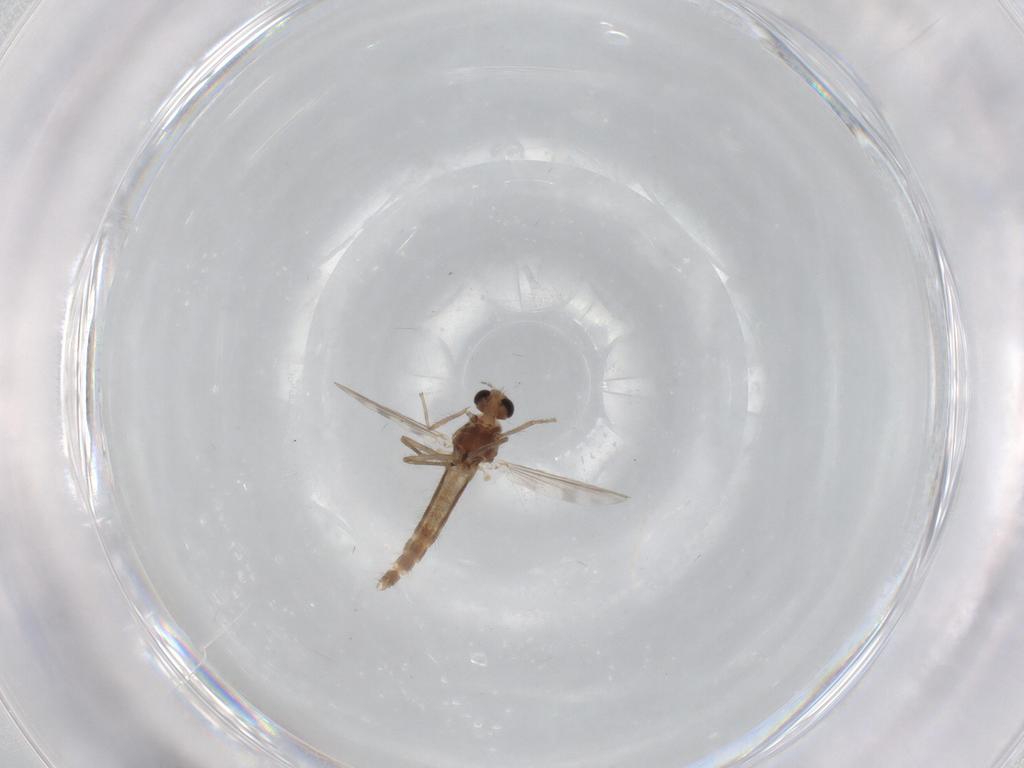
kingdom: Animalia
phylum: Arthropoda
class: Insecta
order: Diptera
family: Chironomidae
